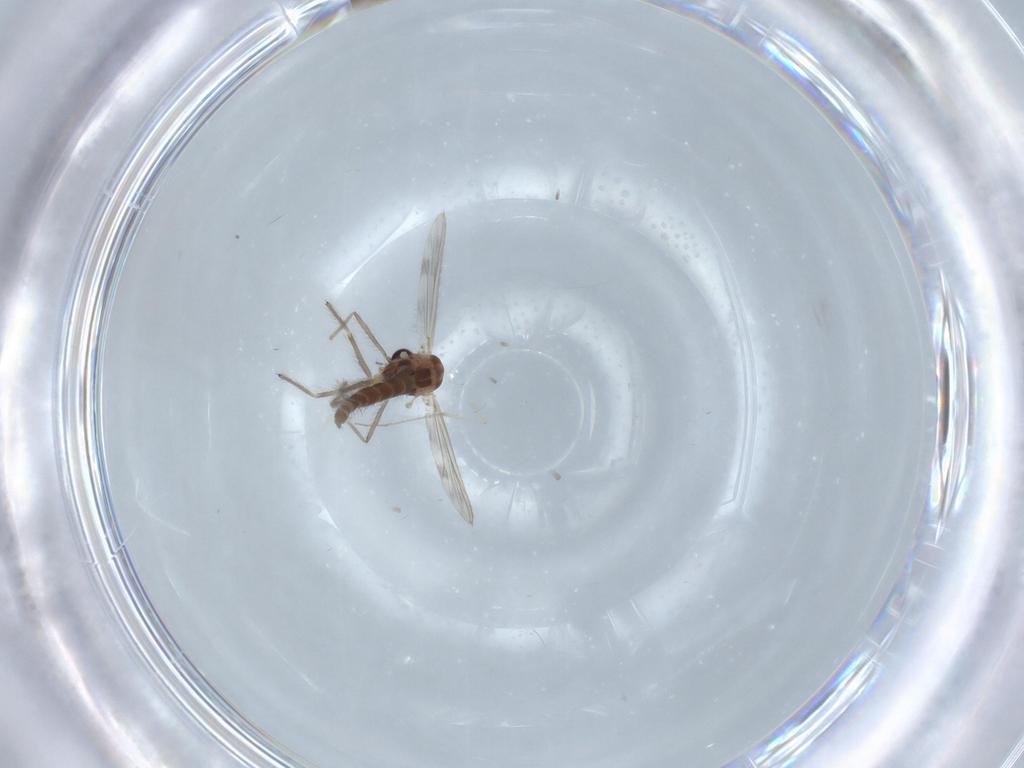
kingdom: Animalia
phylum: Arthropoda
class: Insecta
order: Diptera
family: Chironomidae
